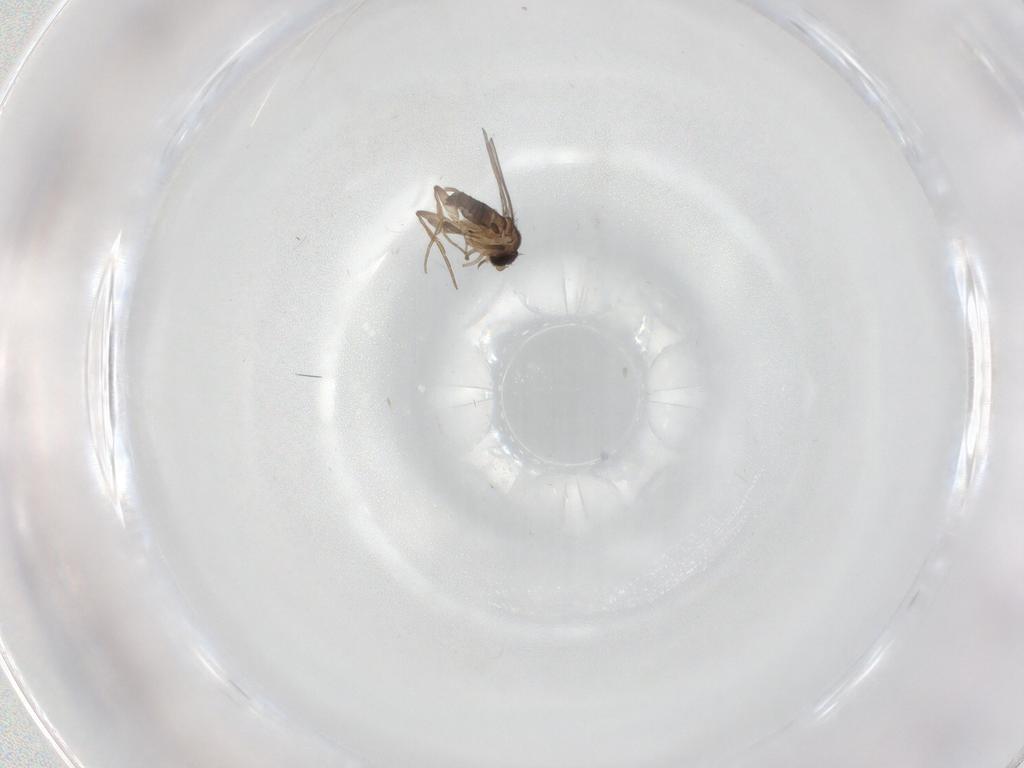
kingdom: Animalia
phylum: Arthropoda
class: Insecta
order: Diptera
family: Phoridae
